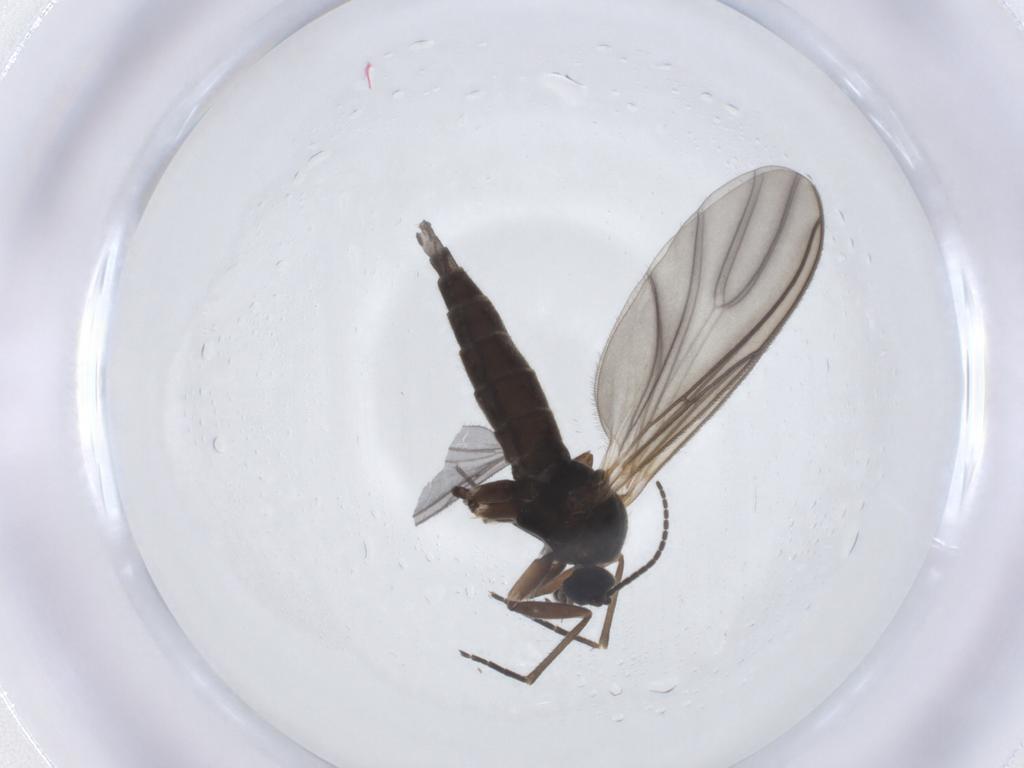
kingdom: Animalia
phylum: Arthropoda
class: Insecta
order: Diptera
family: Sciaridae
